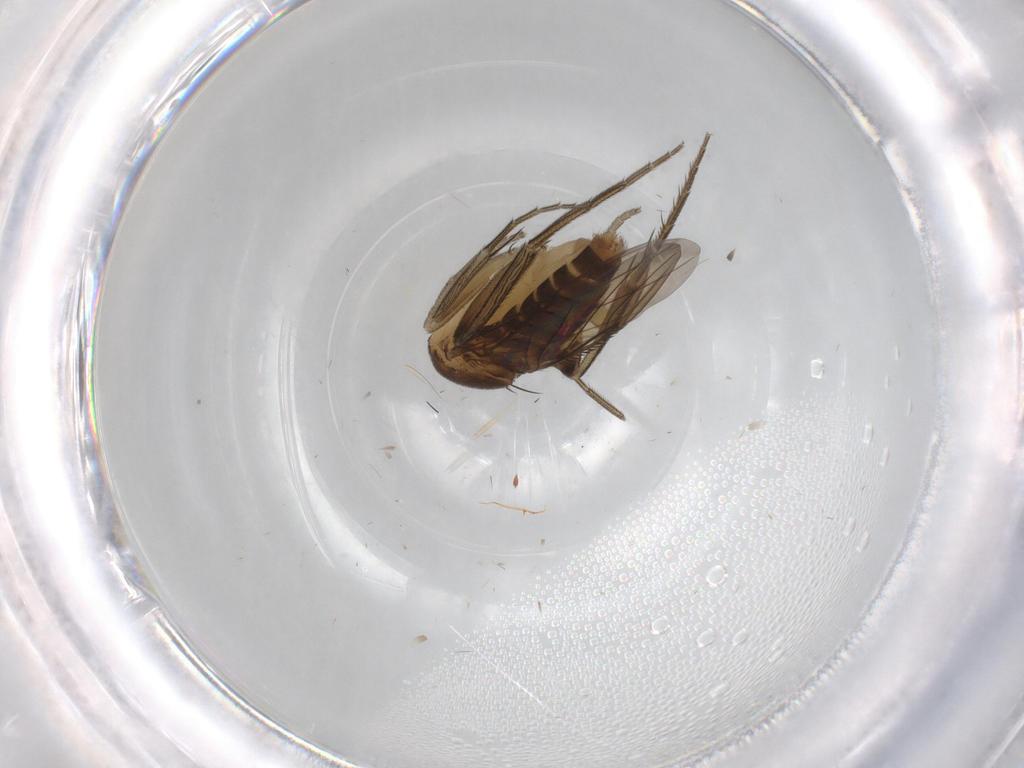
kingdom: Animalia
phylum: Arthropoda
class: Insecta
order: Diptera
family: Phoridae
